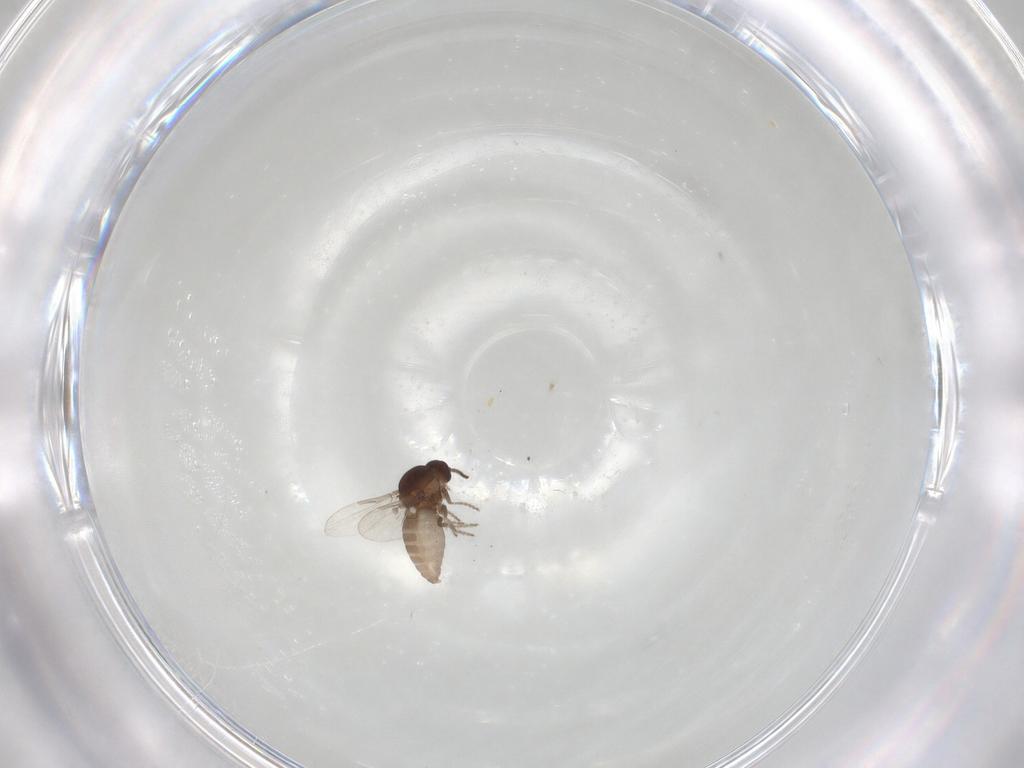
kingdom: Animalia
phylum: Arthropoda
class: Insecta
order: Diptera
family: Ceratopogonidae
